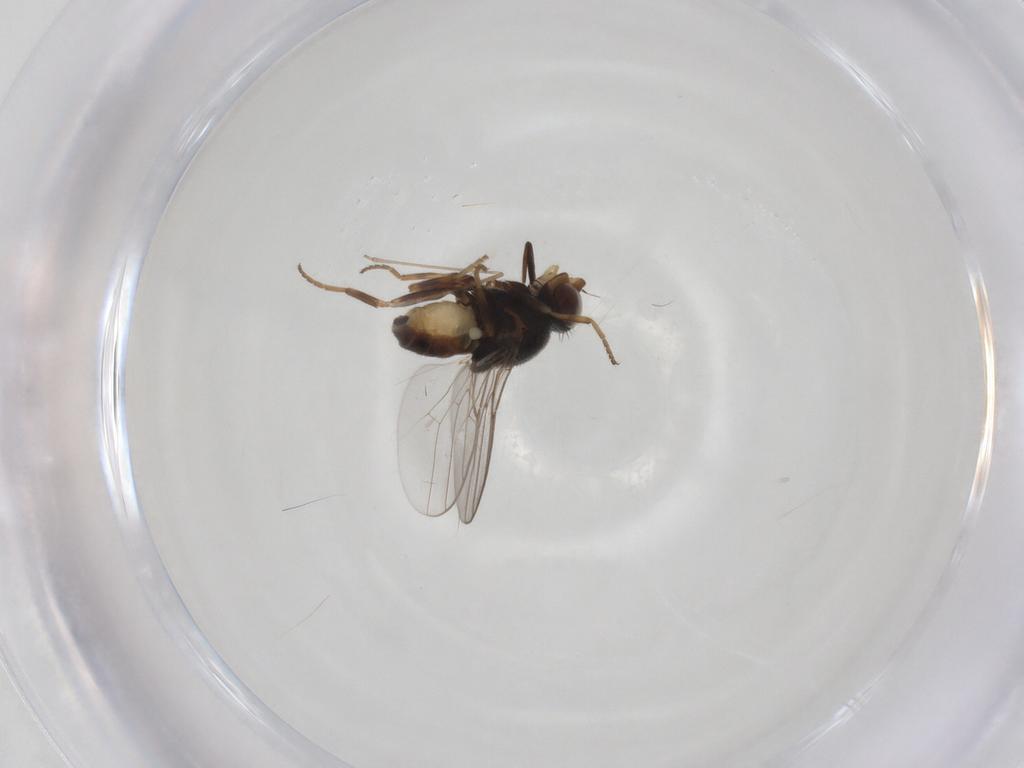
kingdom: Animalia
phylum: Arthropoda
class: Insecta
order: Diptera
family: Chloropidae
